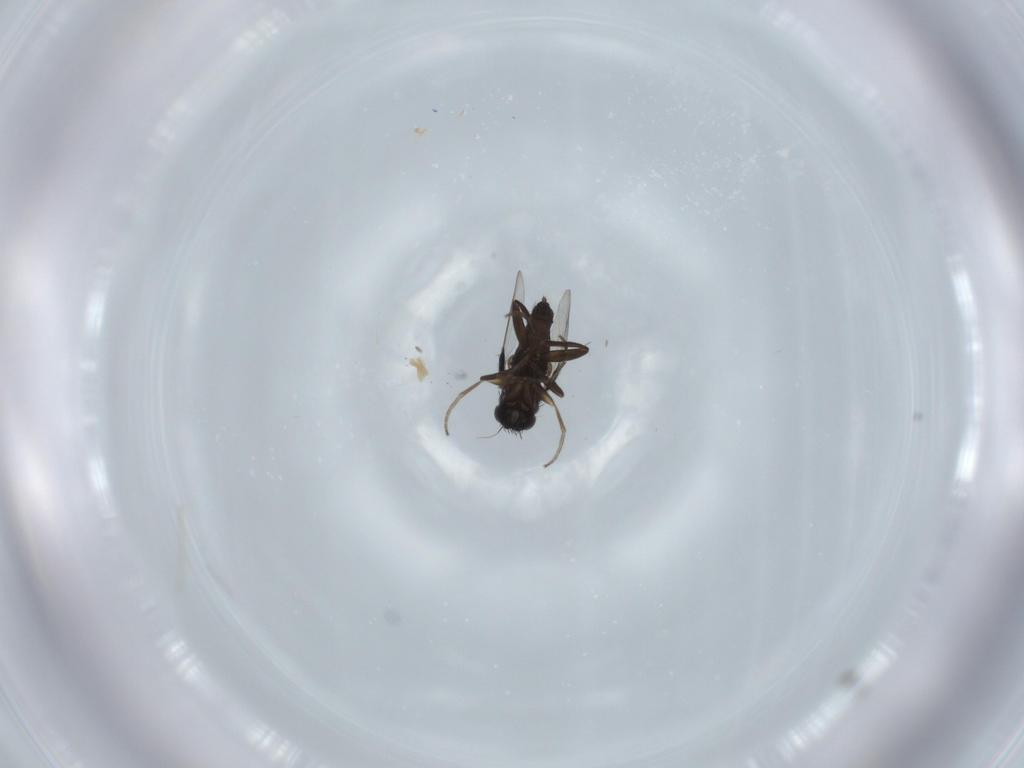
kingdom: Animalia
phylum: Arthropoda
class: Insecta
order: Diptera
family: Phoridae
